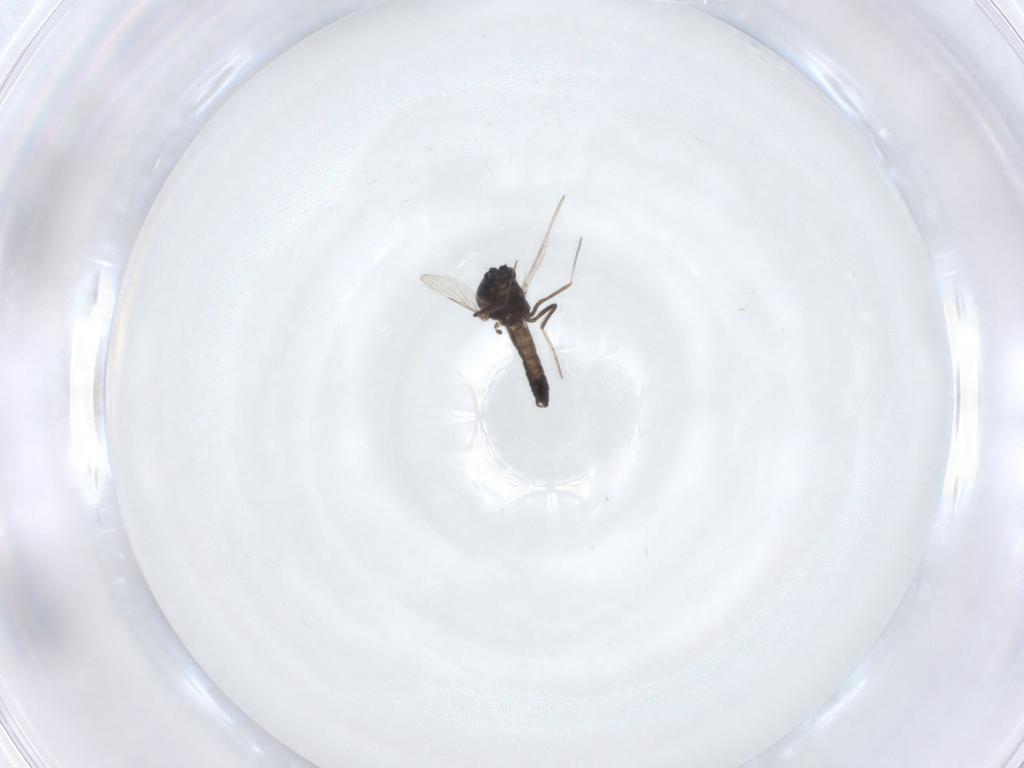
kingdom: Animalia
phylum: Arthropoda
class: Insecta
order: Diptera
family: Ceratopogonidae
